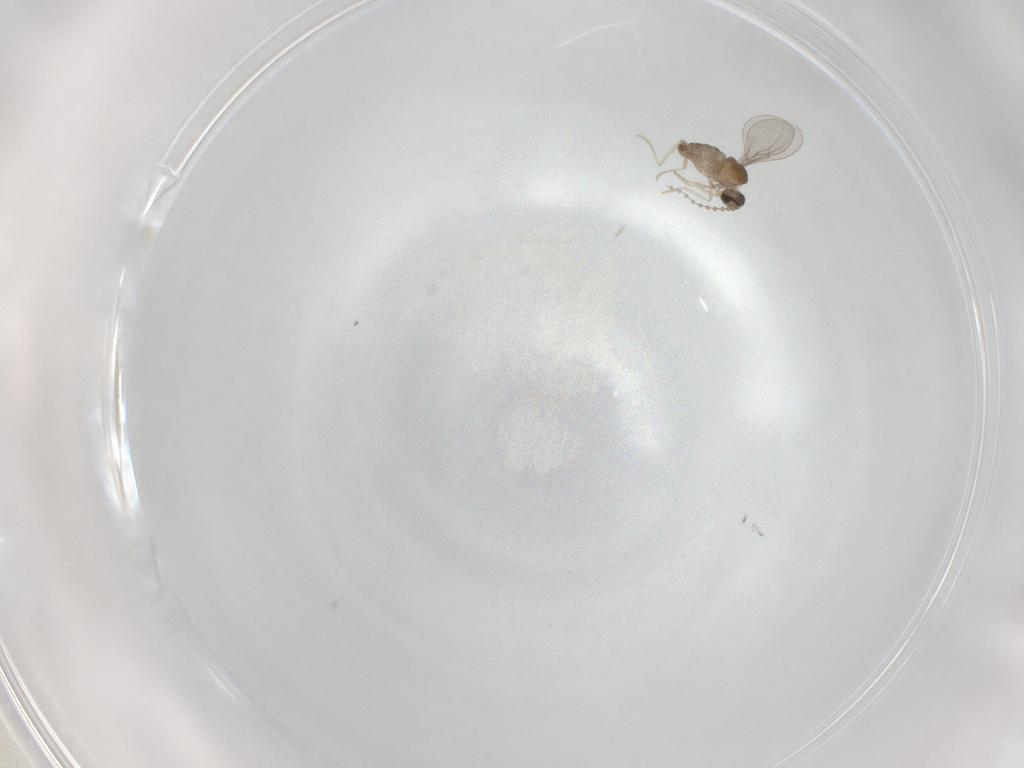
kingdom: Animalia
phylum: Arthropoda
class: Insecta
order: Diptera
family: Cecidomyiidae
